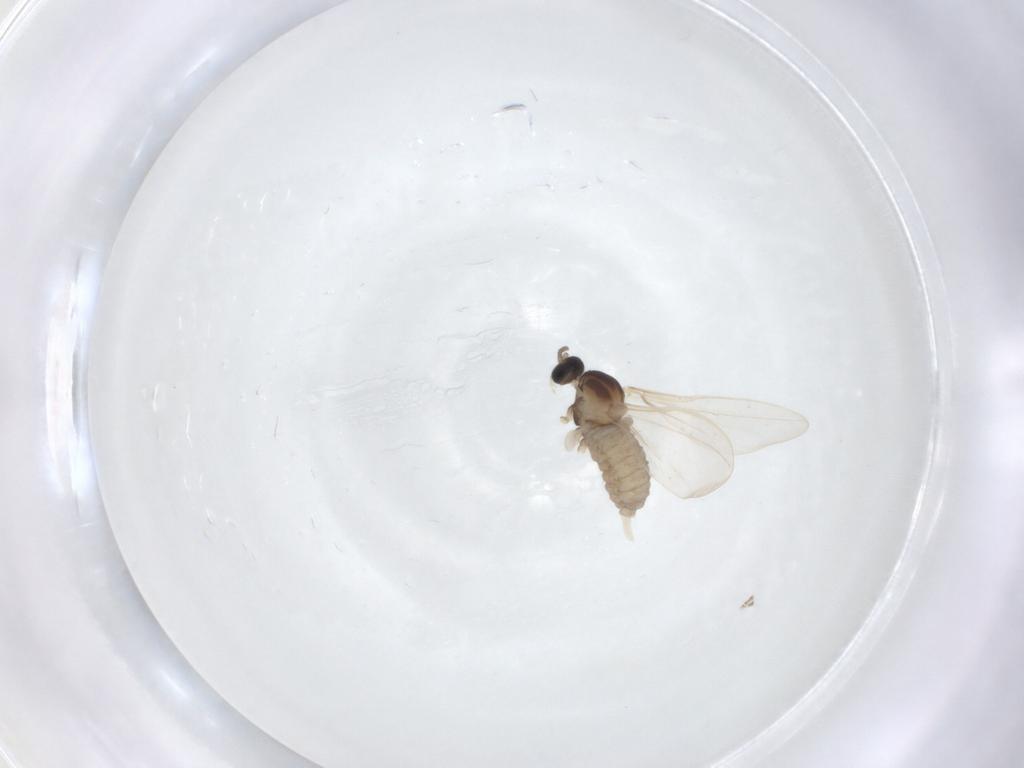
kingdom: Animalia
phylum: Arthropoda
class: Insecta
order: Diptera
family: Cecidomyiidae
